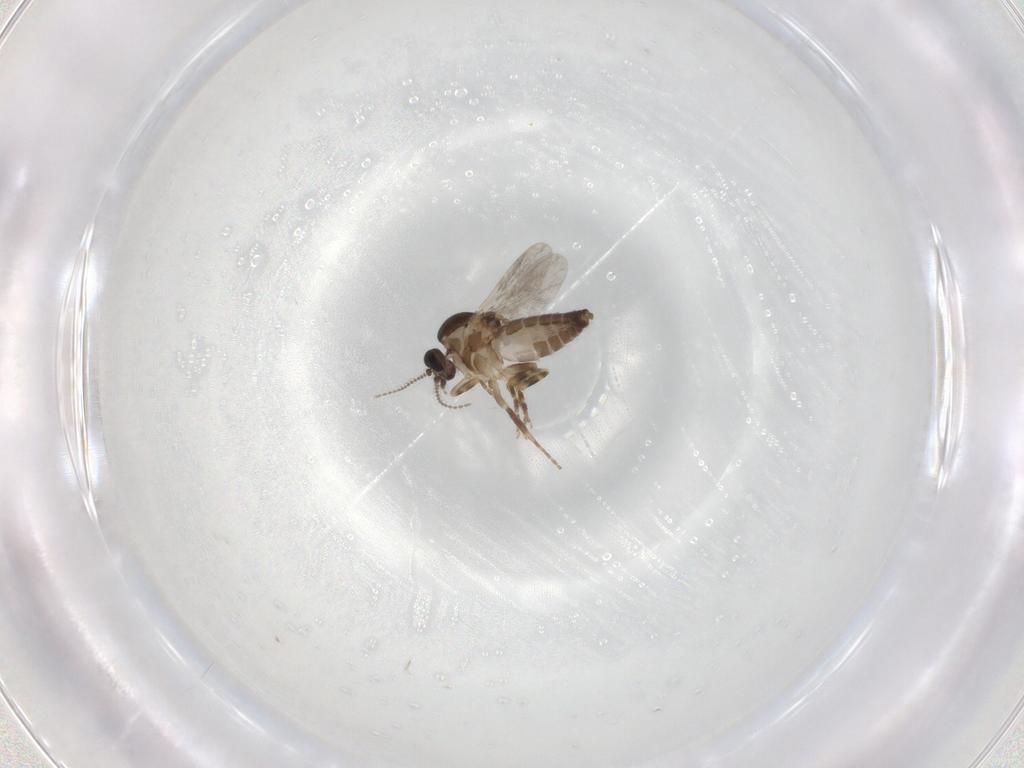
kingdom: Animalia
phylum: Arthropoda
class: Insecta
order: Diptera
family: Ceratopogonidae
